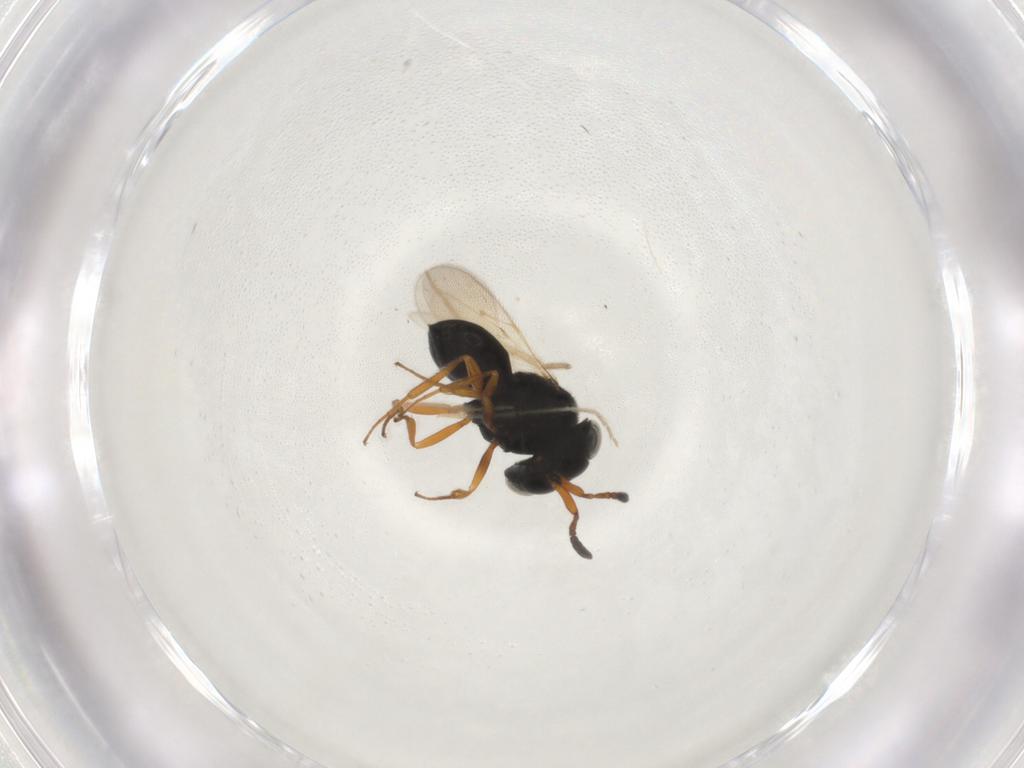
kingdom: Animalia
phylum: Arthropoda
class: Insecta
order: Hymenoptera
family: Scelionidae
